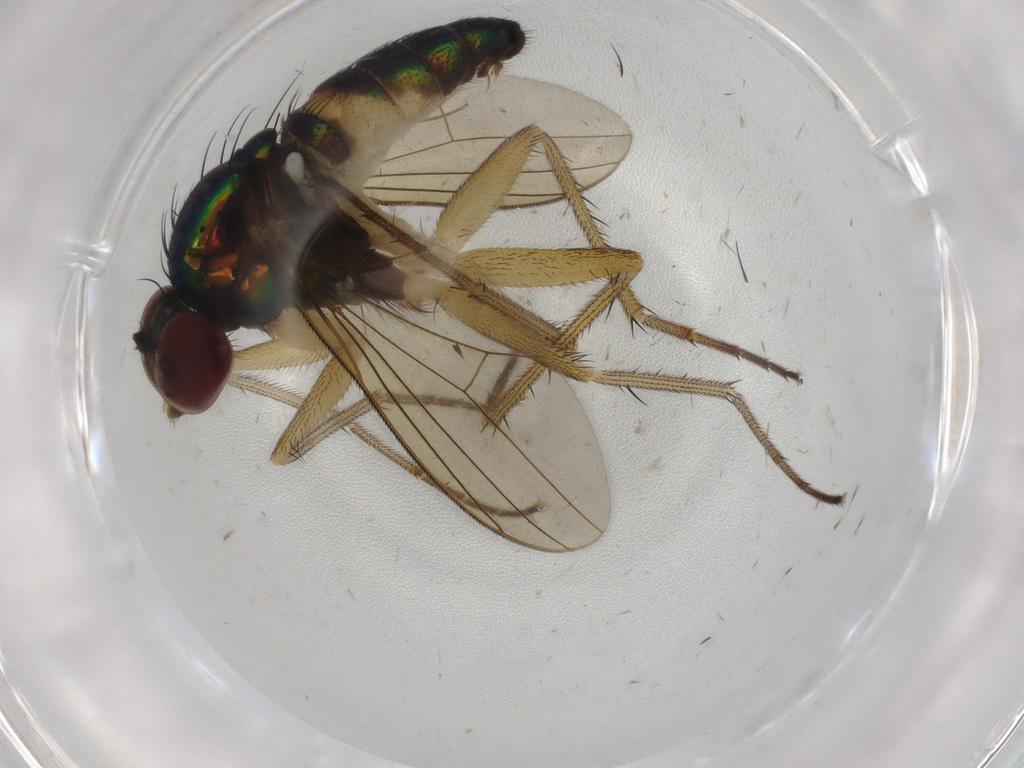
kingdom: Animalia
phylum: Arthropoda
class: Insecta
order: Diptera
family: Dolichopodidae
